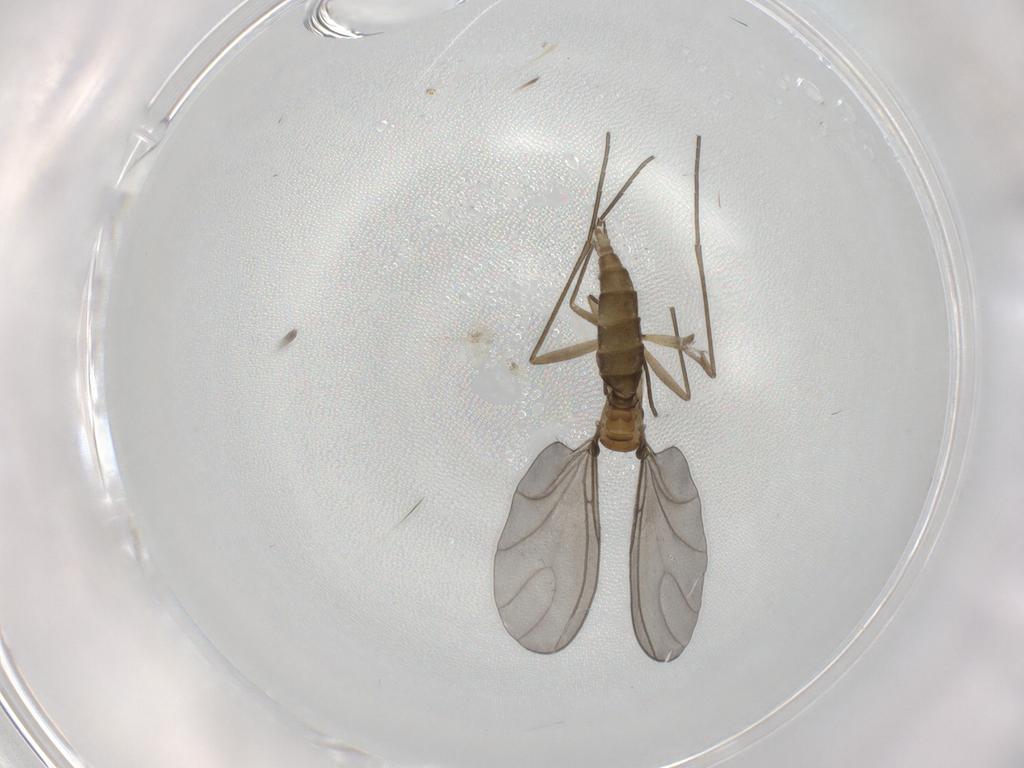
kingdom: Animalia
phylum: Arthropoda
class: Insecta
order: Diptera
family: Sciaridae
